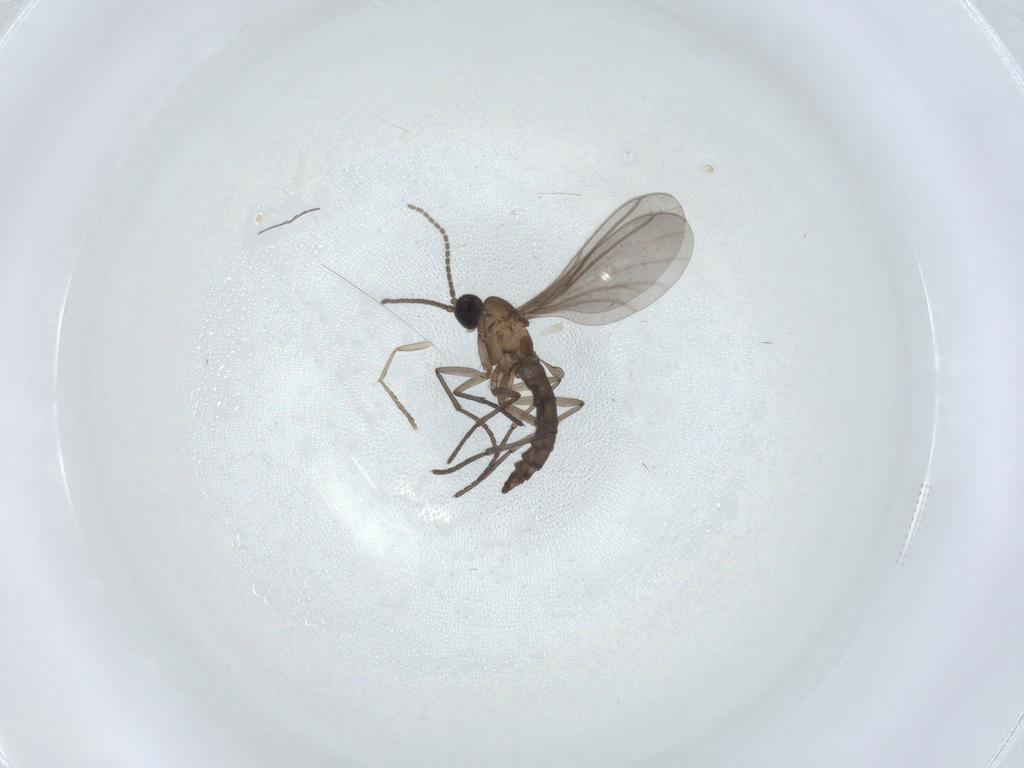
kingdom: Animalia
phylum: Arthropoda
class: Insecta
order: Diptera
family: Sciaridae
